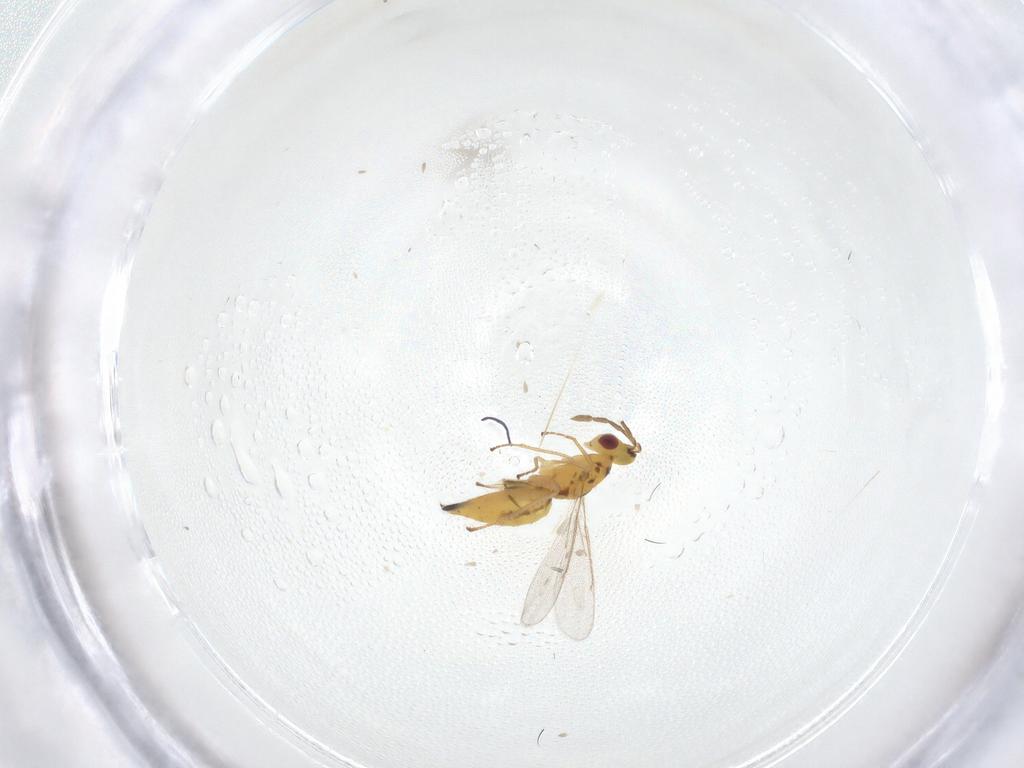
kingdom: Animalia
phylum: Arthropoda
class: Insecta
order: Hymenoptera
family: Eulophidae
